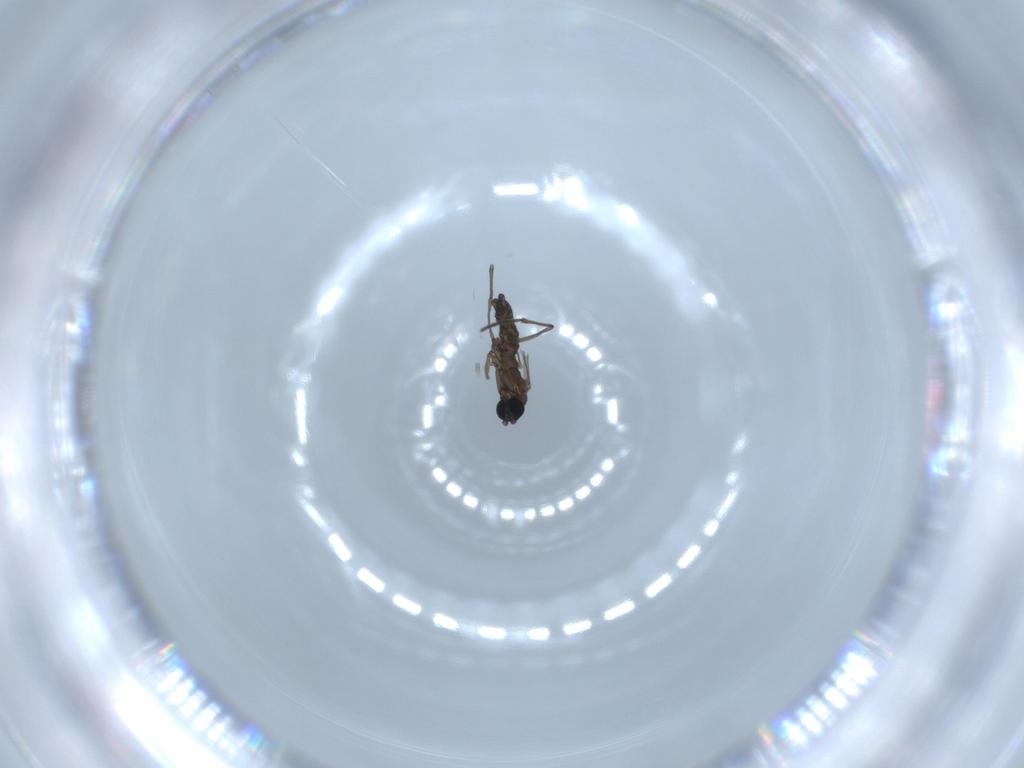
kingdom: Animalia
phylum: Arthropoda
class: Insecta
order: Diptera
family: Sciaridae
